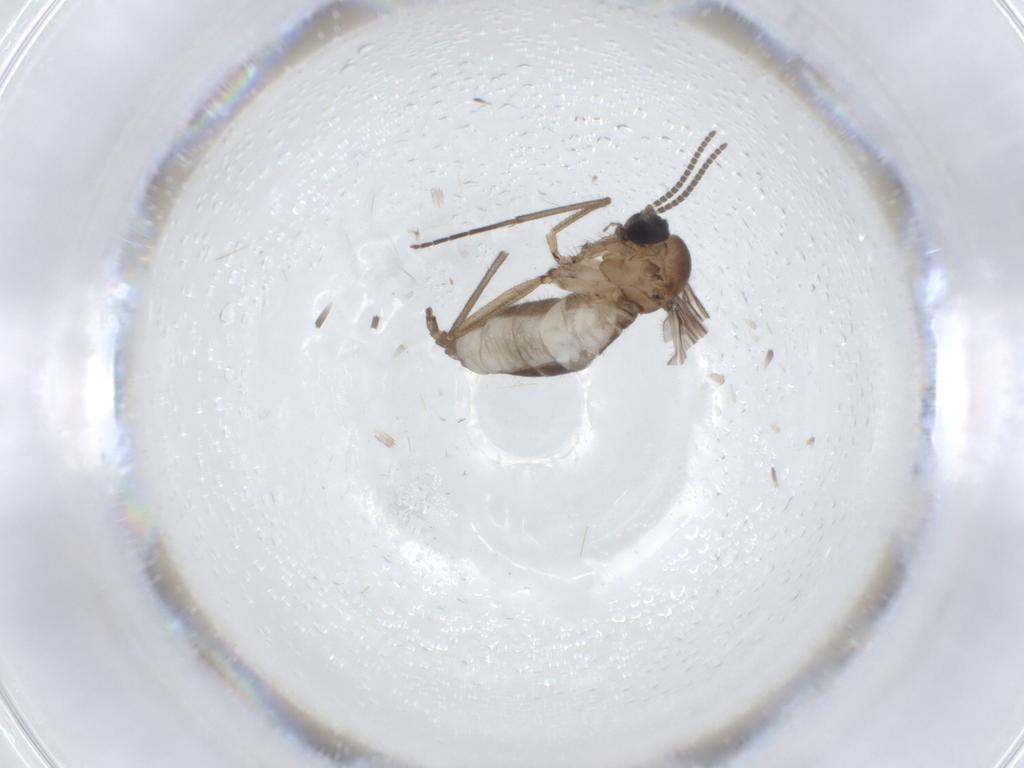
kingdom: Animalia
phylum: Arthropoda
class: Insecta
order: Diptera
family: Sciaridae
